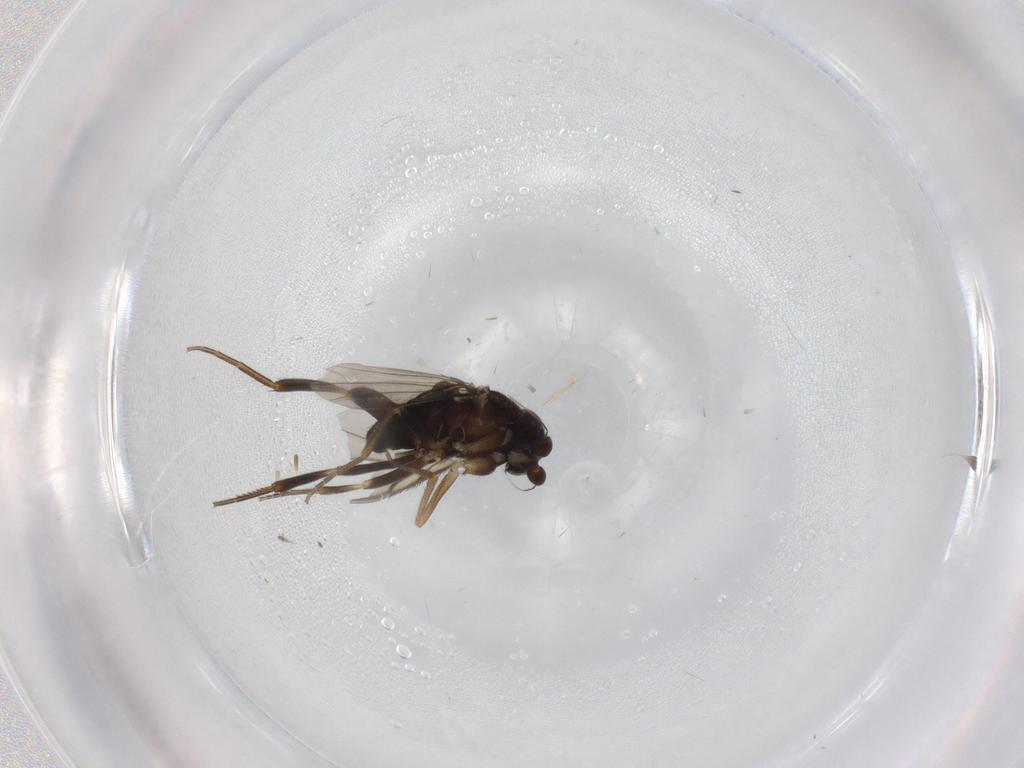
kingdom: Animalia
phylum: Arthropoda
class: Insecta
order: Diptera
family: Phoridae
